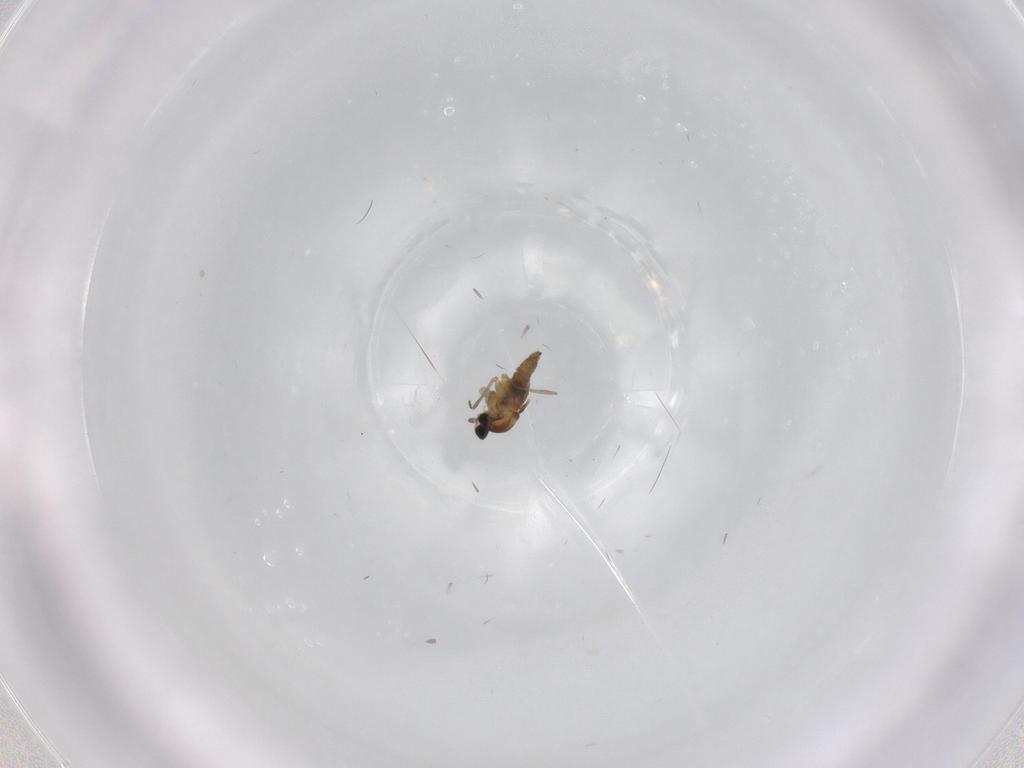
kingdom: Animalia
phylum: Arthropoda
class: Insecta
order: Diptera
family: Cecidomyiidae
